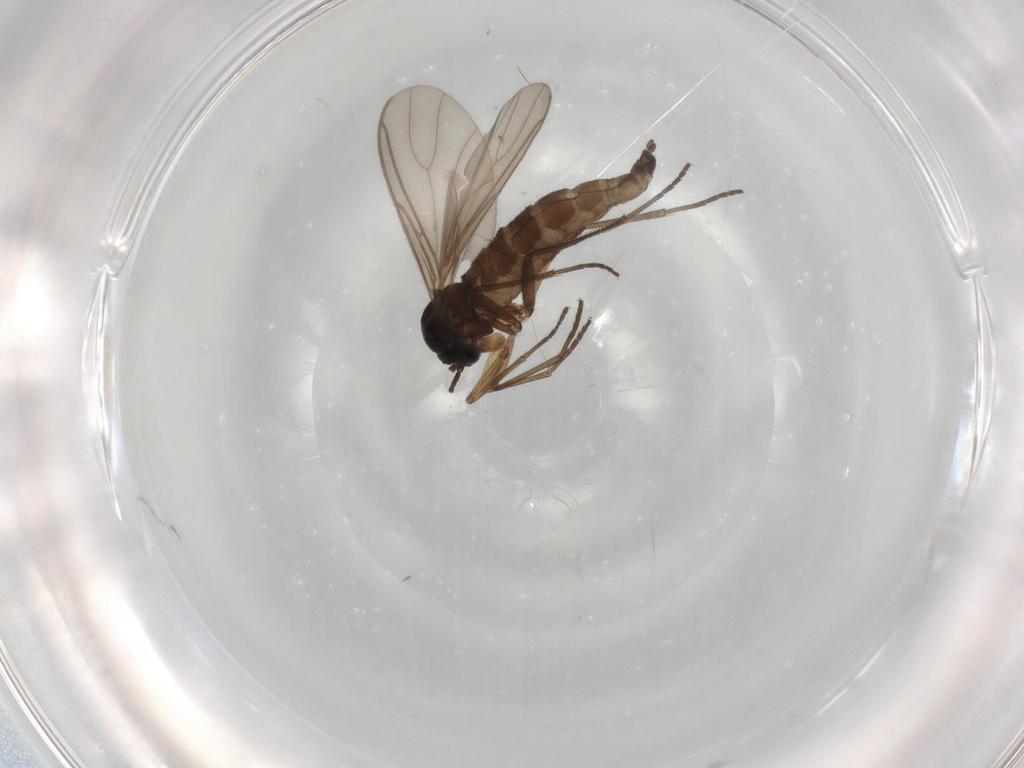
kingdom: Animalia
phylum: Arthropoda
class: Insecta
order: Diptera
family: Sciaridae
